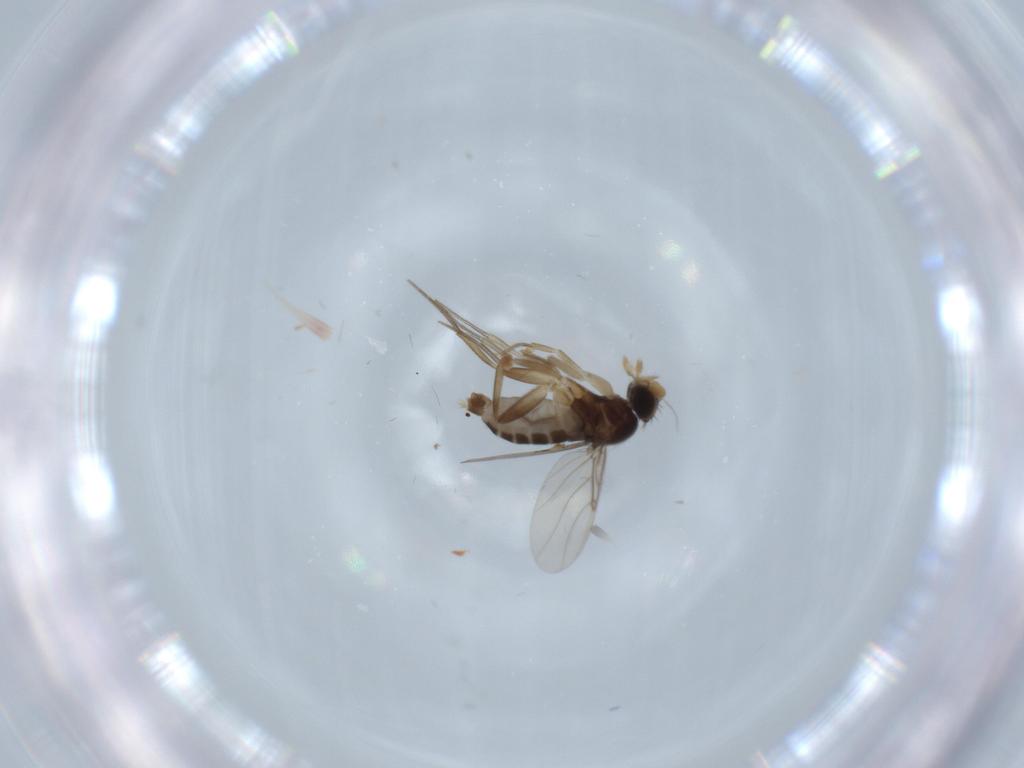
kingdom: Animalia
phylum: Arthropoda
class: Insecta
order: Diptera
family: Phoridae
